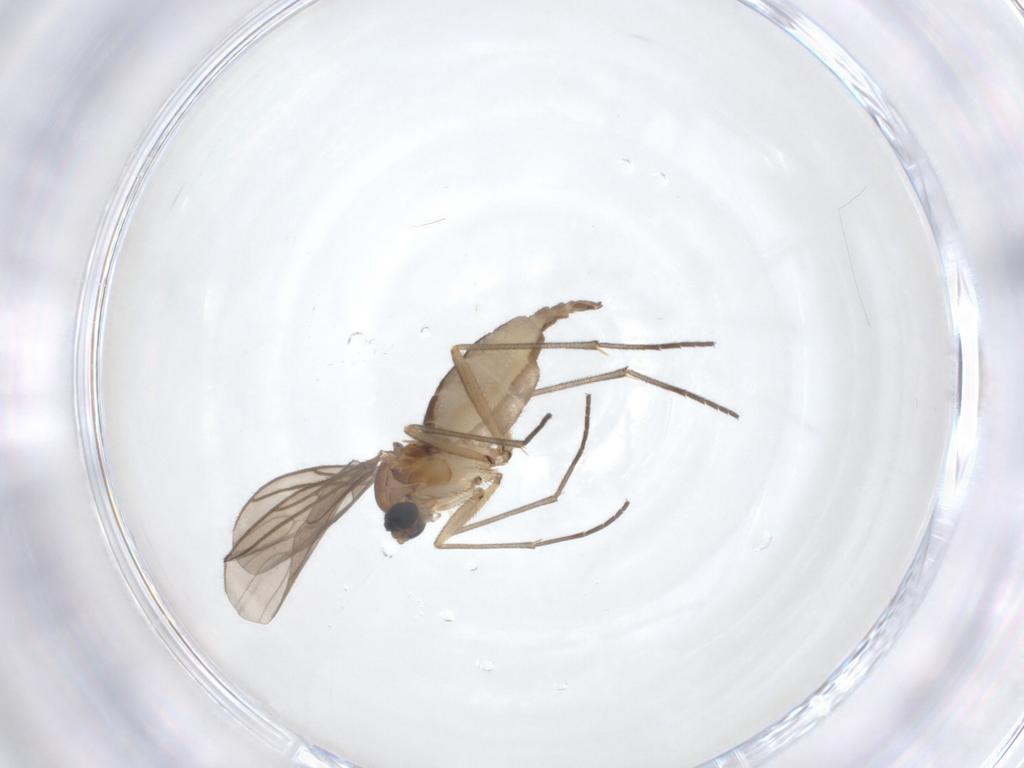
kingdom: Animalia
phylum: Arthropoda
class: Insecta
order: Diptera
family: Sciaridae
